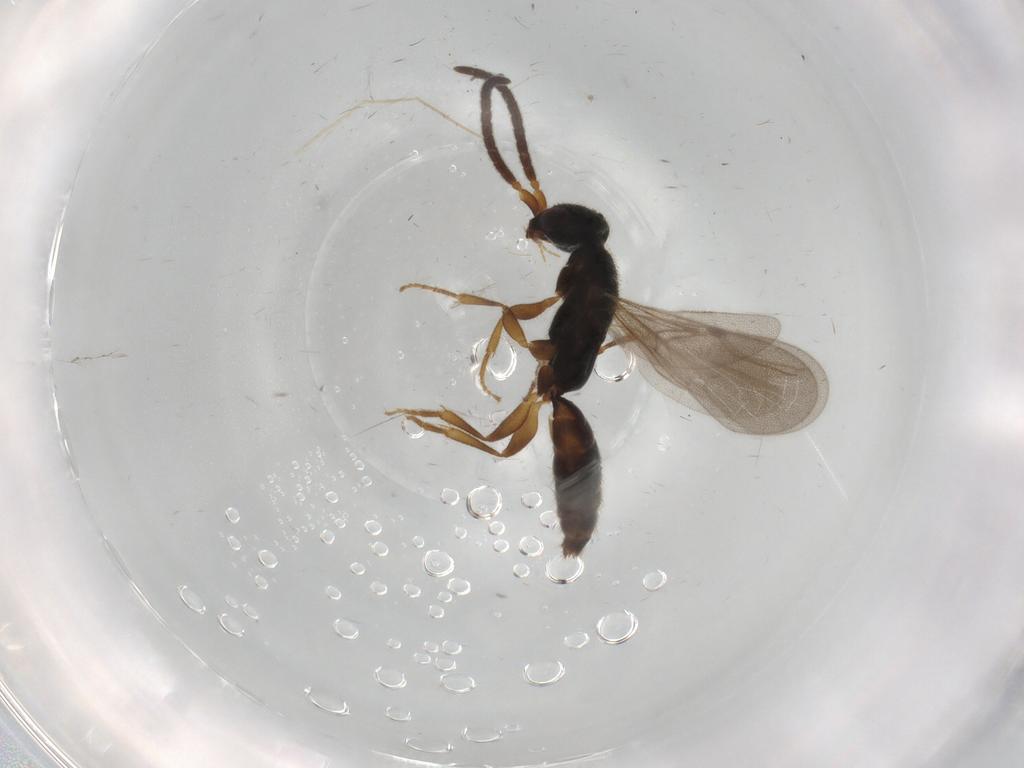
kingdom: Animalia
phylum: Arthropoda
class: Insecta
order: Hymenoptera
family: Bethylidae
